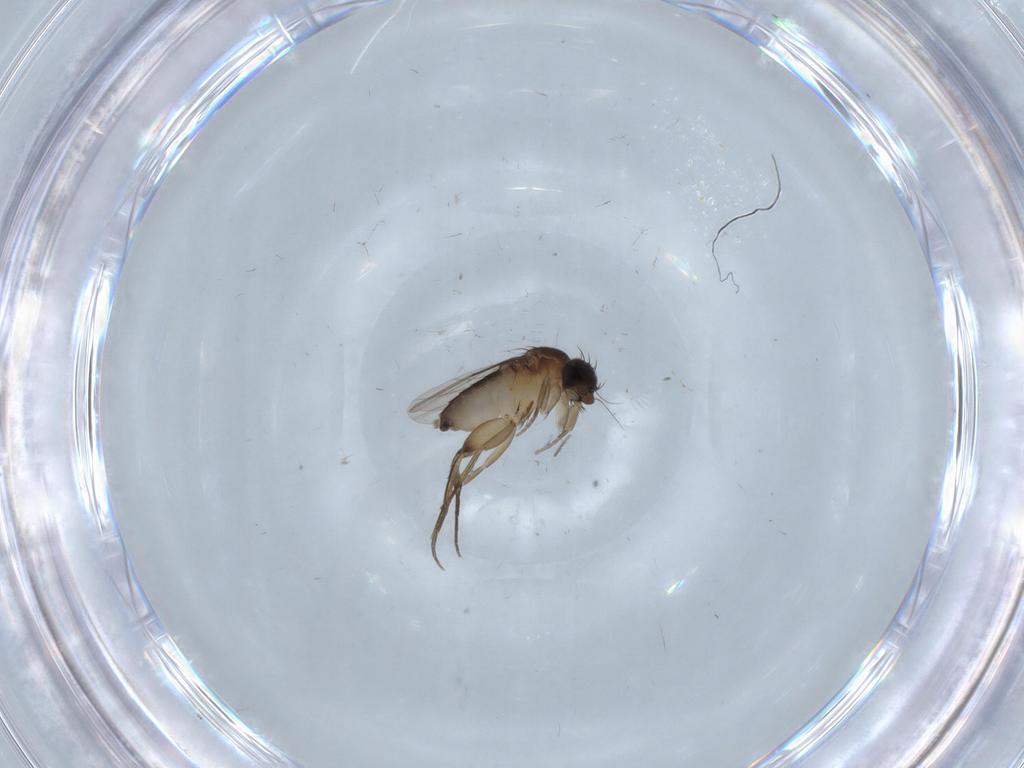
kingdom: Animalia
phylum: Arthropoda
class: Insecta
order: Diptera
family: Phoridae
